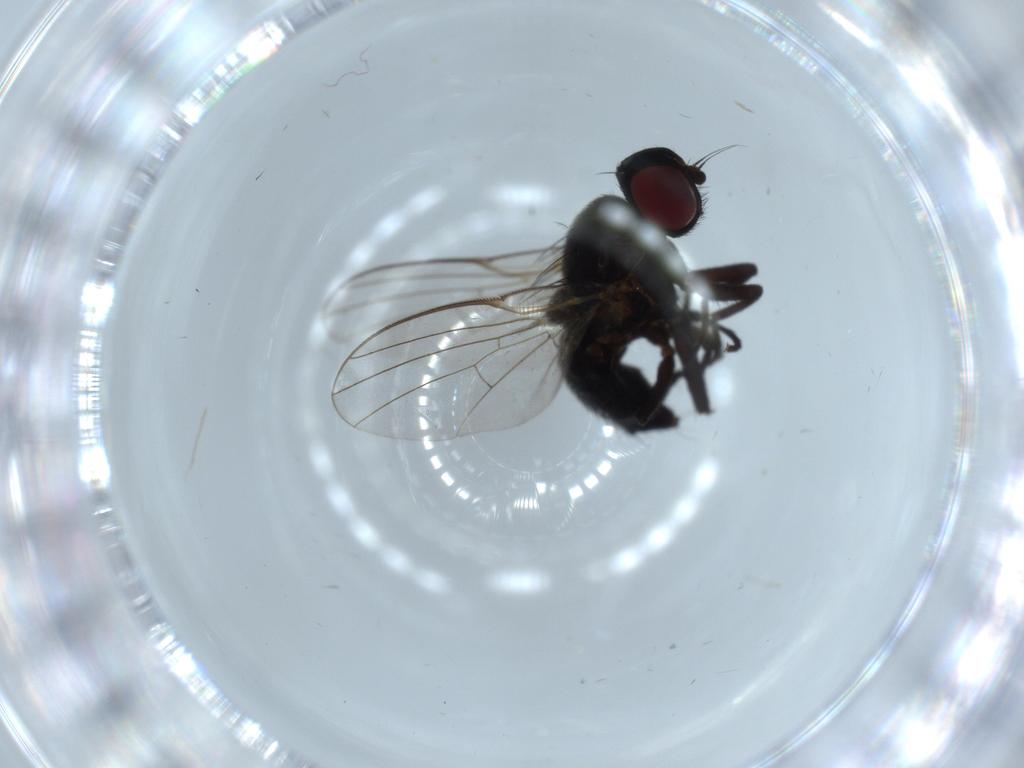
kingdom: Animalia
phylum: Arthropoda
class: Insecta
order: Diptera
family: Agromyzidae
